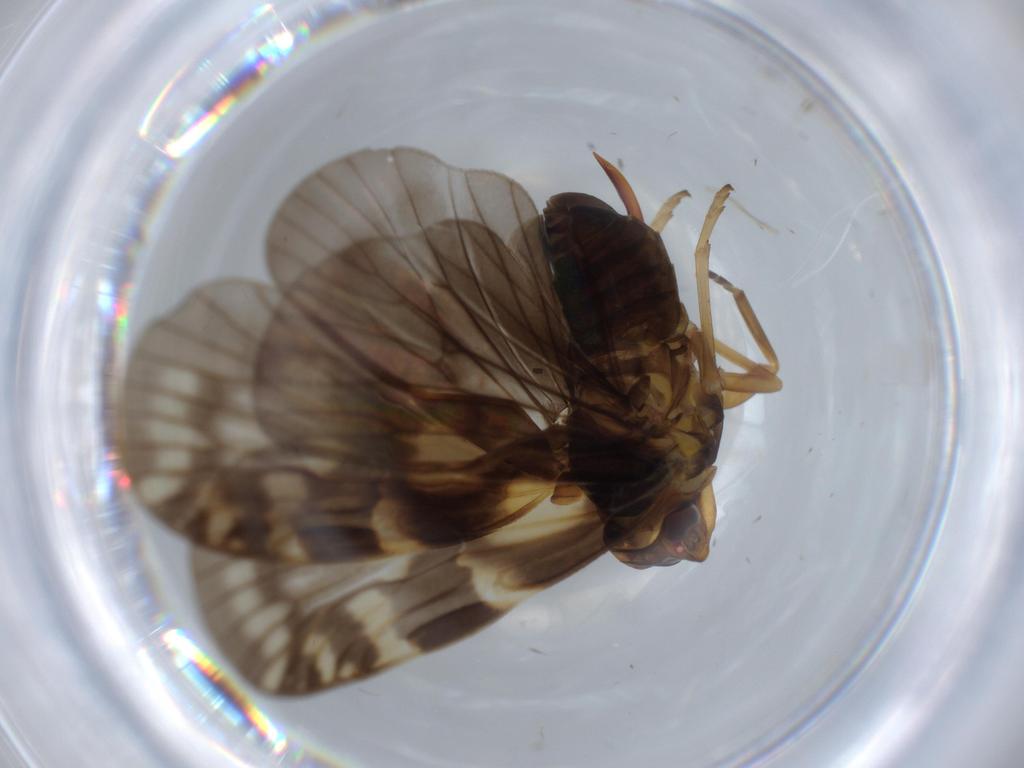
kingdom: Animalia
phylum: Arthropoda
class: Insecta
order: Hemiptera
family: Cixiidae
